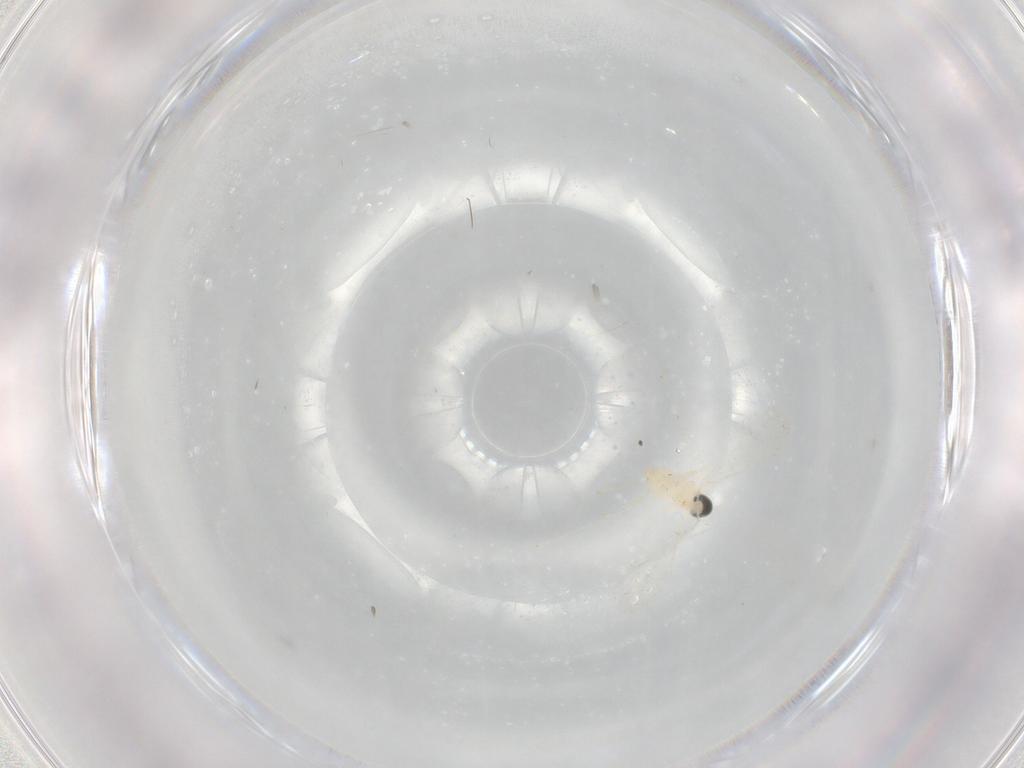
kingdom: Animalia
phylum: Arthropoda
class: Insecta
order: Diptera
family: Cecidomyiidae
